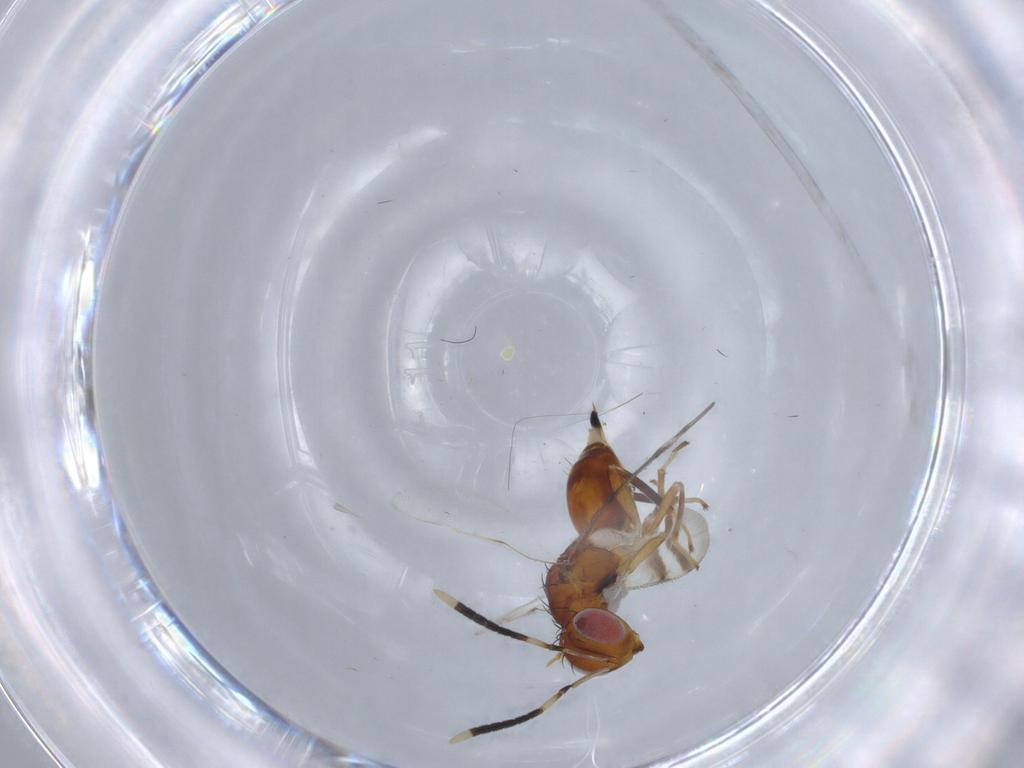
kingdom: Animalia
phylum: Arthropoda
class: Insecta
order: Hymenoptera
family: Diparidae
